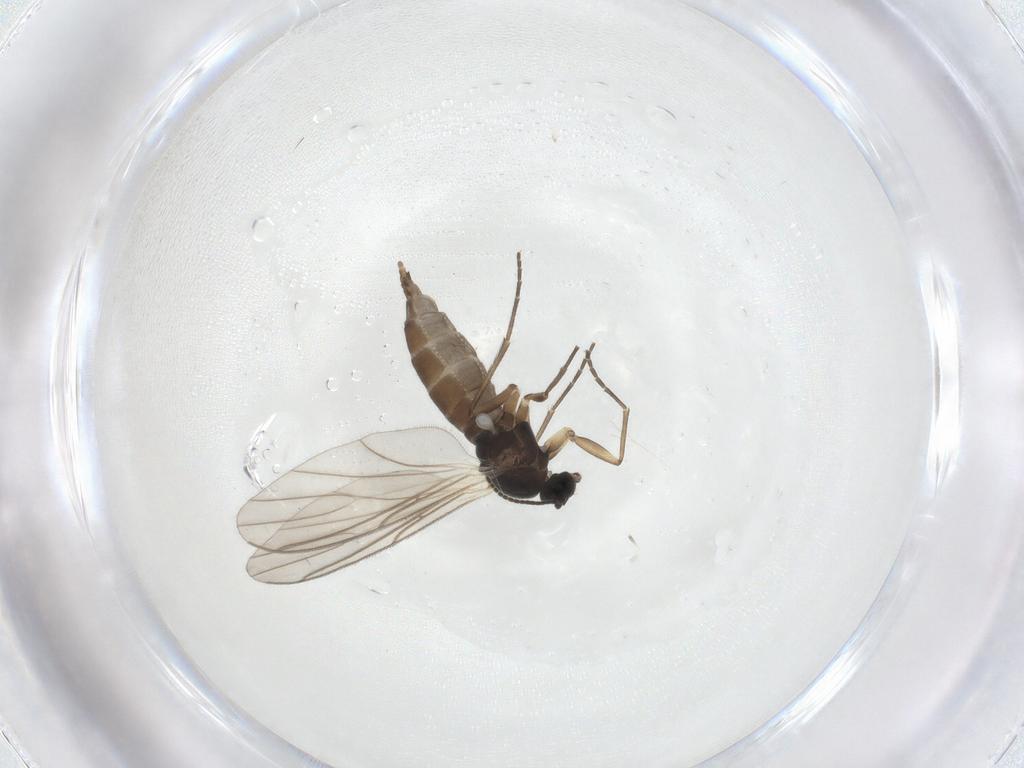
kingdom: Animalia
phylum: Arthropoda
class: Insecta
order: Diptera
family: Sciaridae
